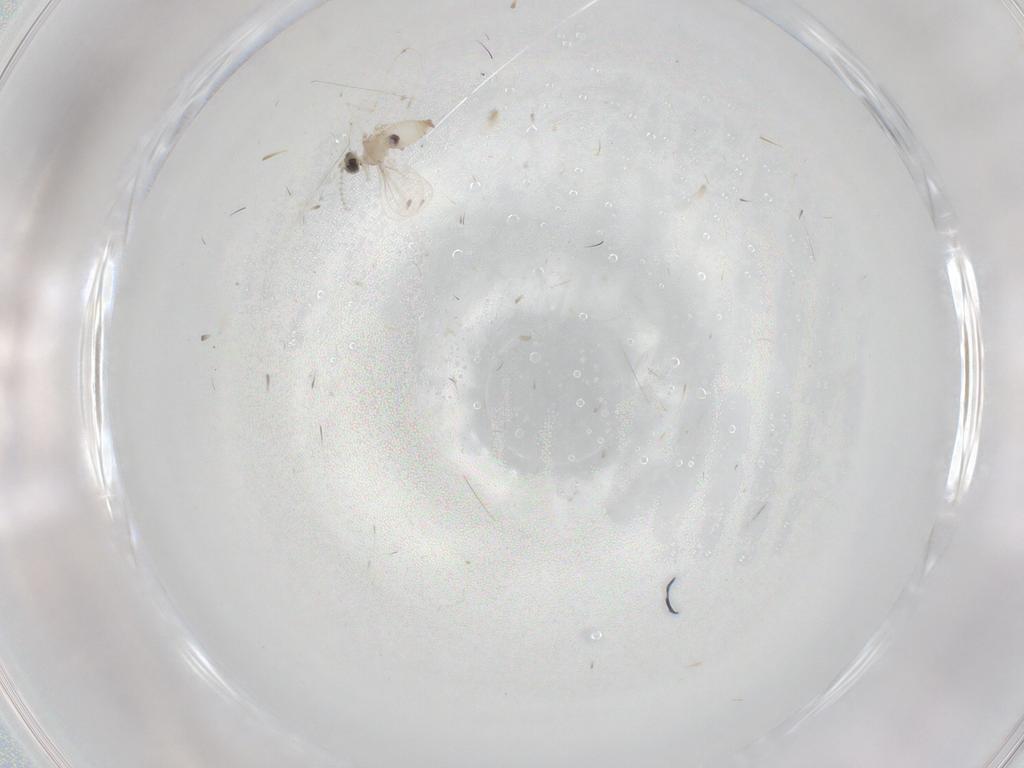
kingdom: Animalia
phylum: Arthropoda
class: Insecta
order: Diptera
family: Cecidomyiidae
